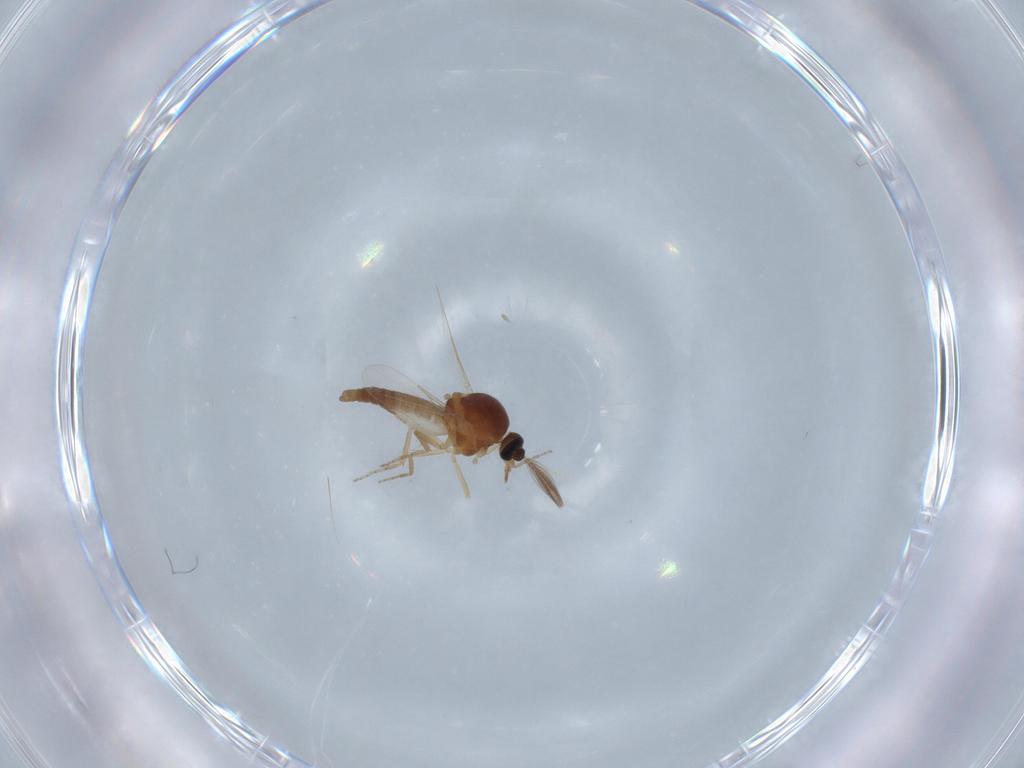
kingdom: Animalia
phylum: Arthropoda
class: Insecta
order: Diptera
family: Ceratopogonidae
